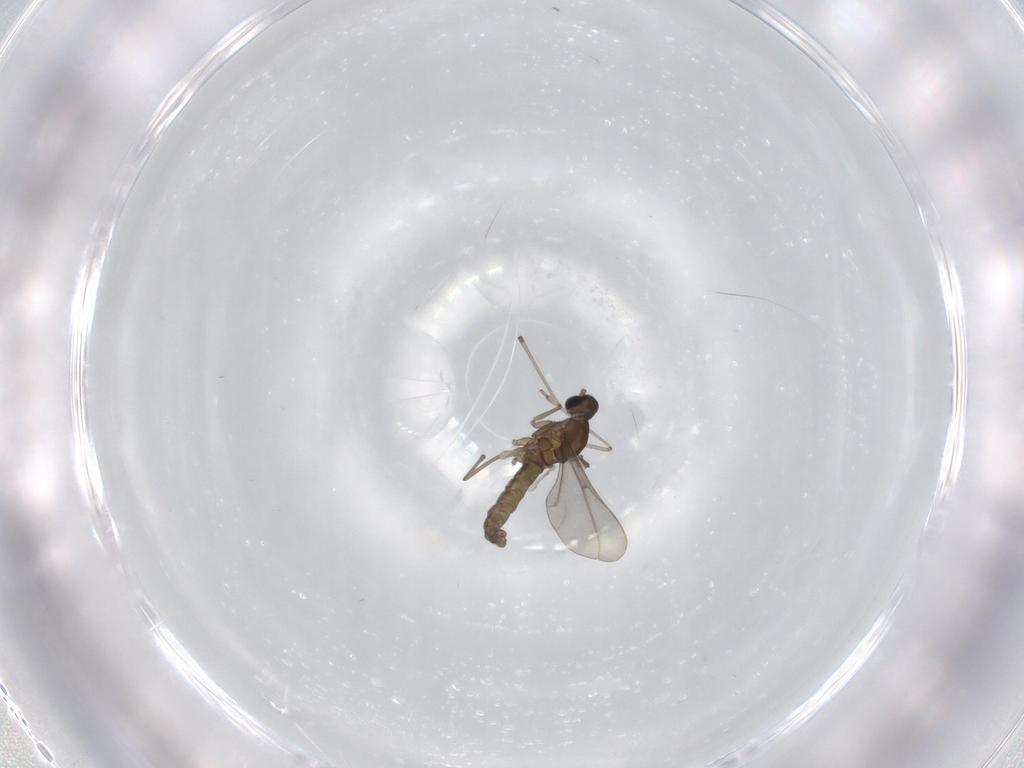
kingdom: Animalia
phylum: Arthropoda
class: Insecta
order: Diptera
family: Cecidomyiidae
